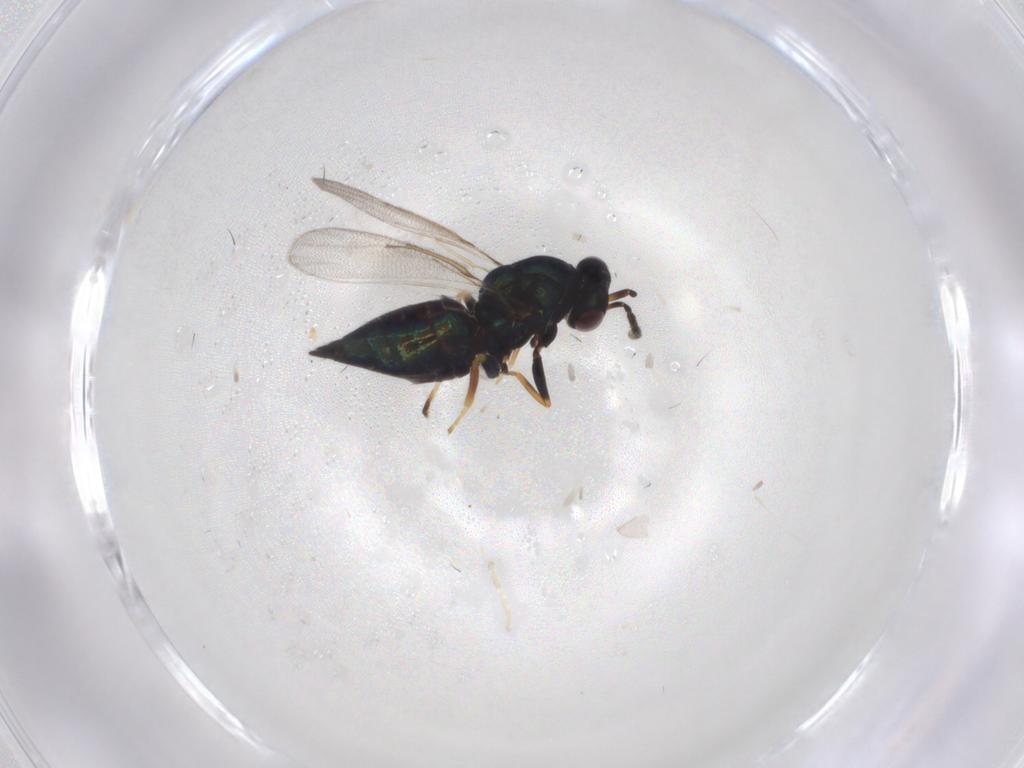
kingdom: Animalia
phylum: Arthropoda
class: Insecta
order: Hymenoptera
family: Eulophidae
